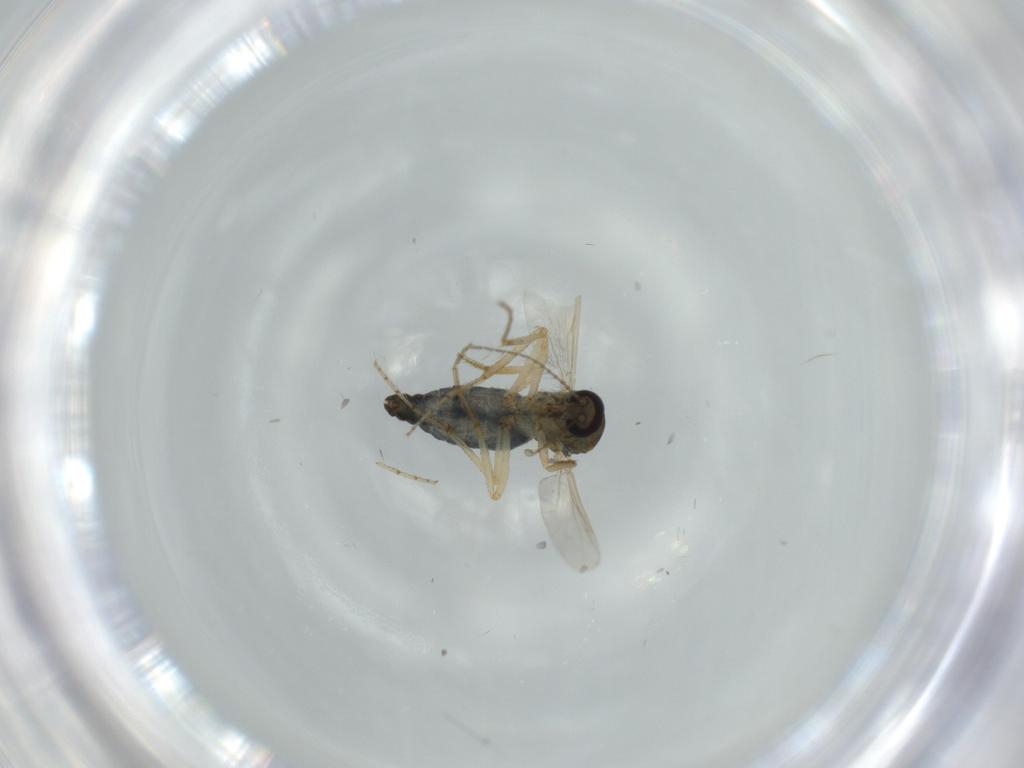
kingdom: Animalia
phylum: Arthropoda
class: Insecta
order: Diptera
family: Ceratopogonidae
